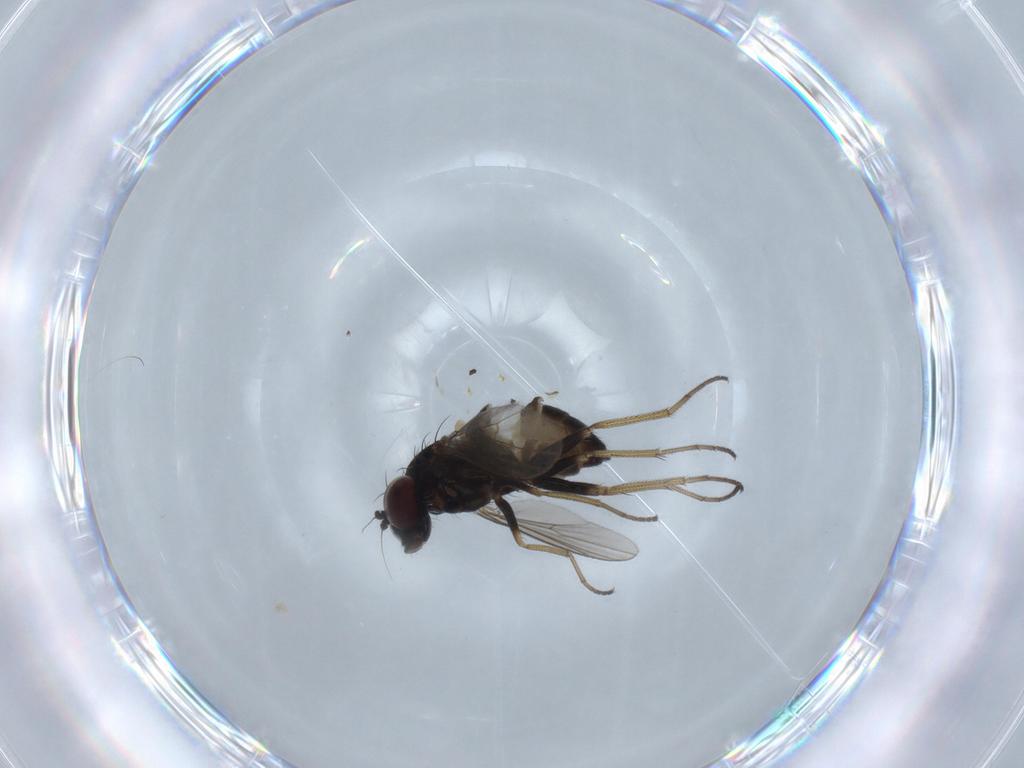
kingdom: Animalia
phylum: Arthropoda
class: Insecta
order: Diptera
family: Dolichopodidae
